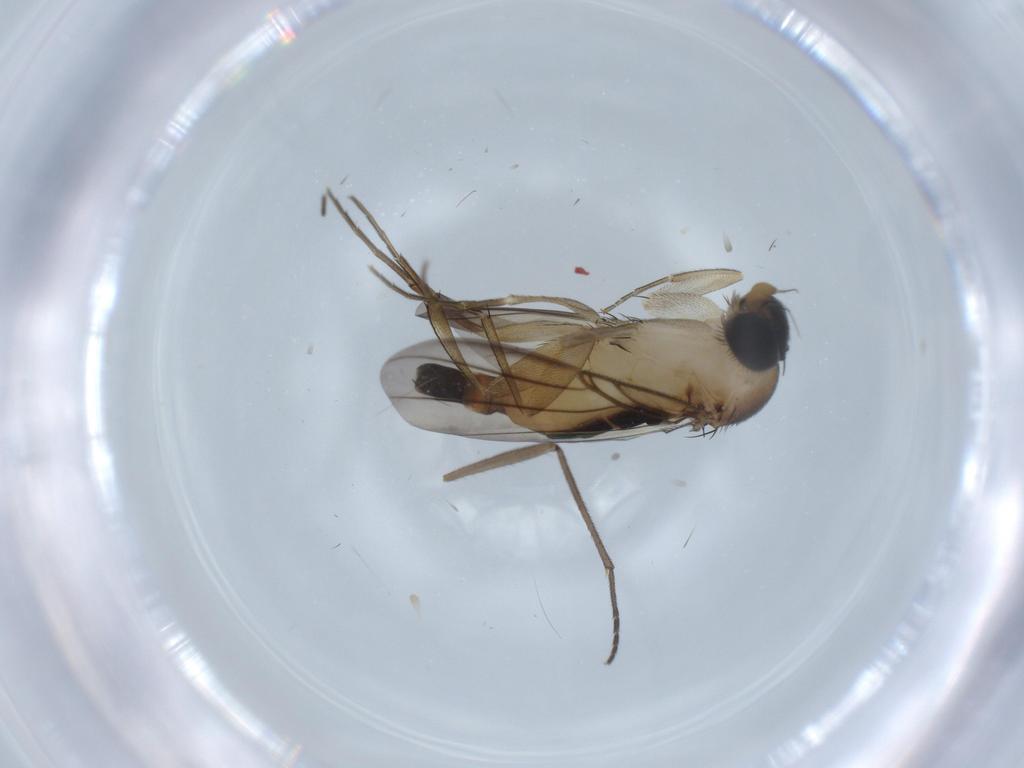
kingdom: Animalia
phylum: Arthropoda
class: Insecta
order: Diptera
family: Phoridae
